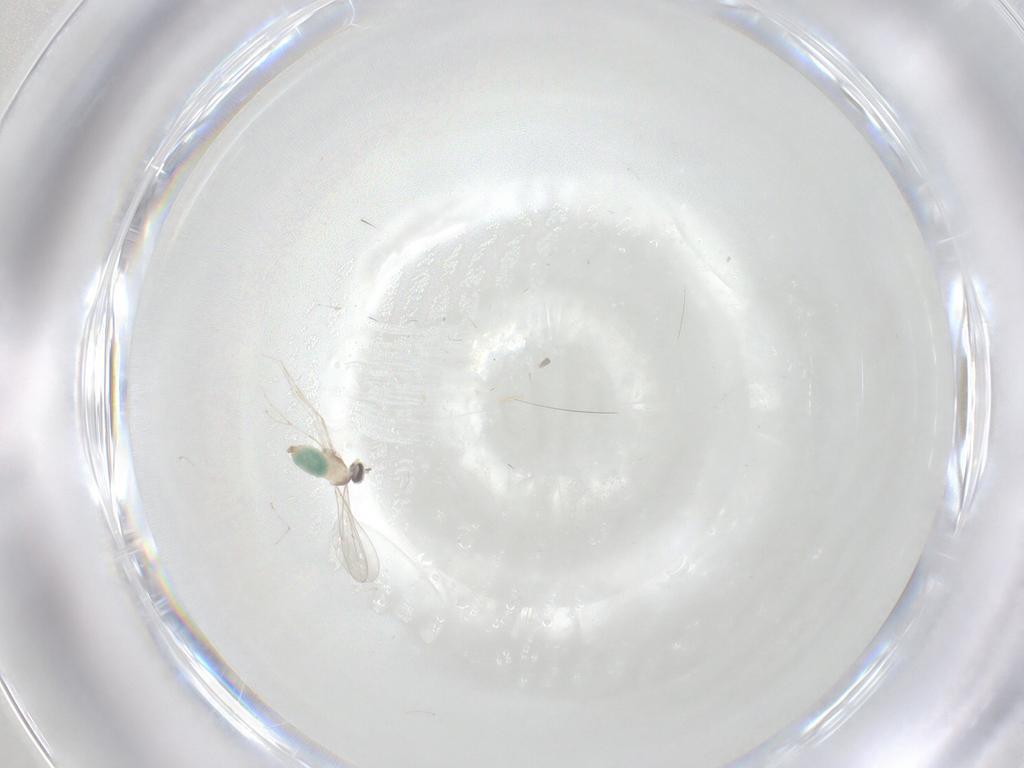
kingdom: Animalia
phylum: Arthropoda
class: Insecta
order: Diptera
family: Cecidomyiidae
